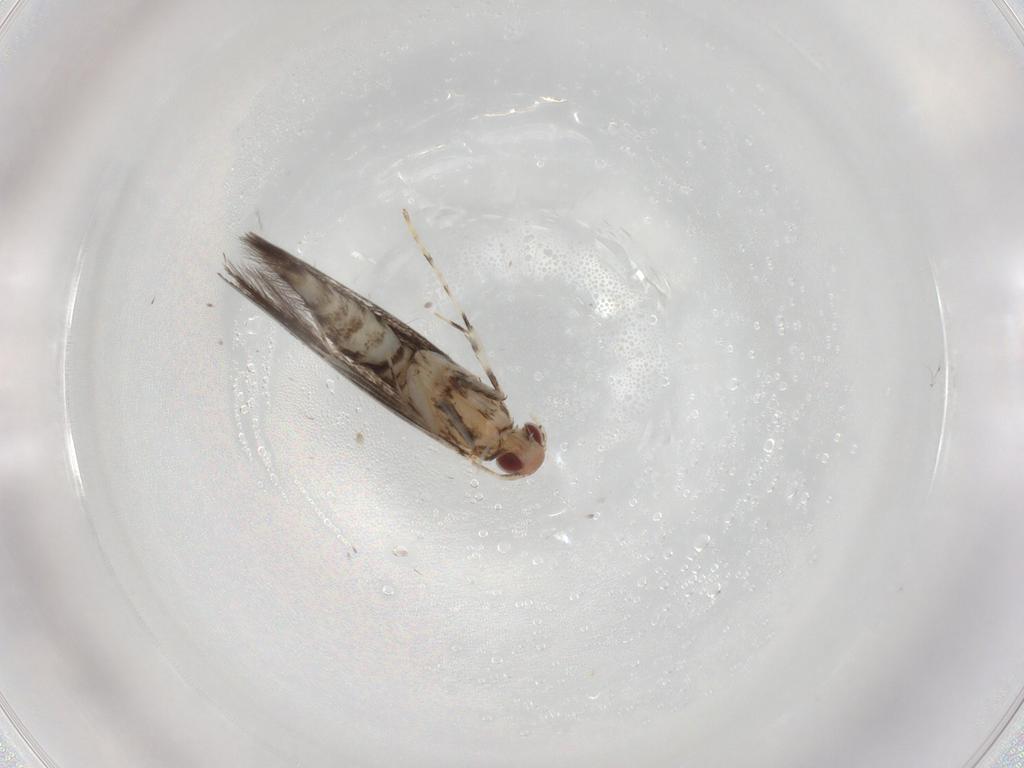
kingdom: Animalia
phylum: Arthropoda
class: Insecta
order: Lepidoptera
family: Gracillariidae
